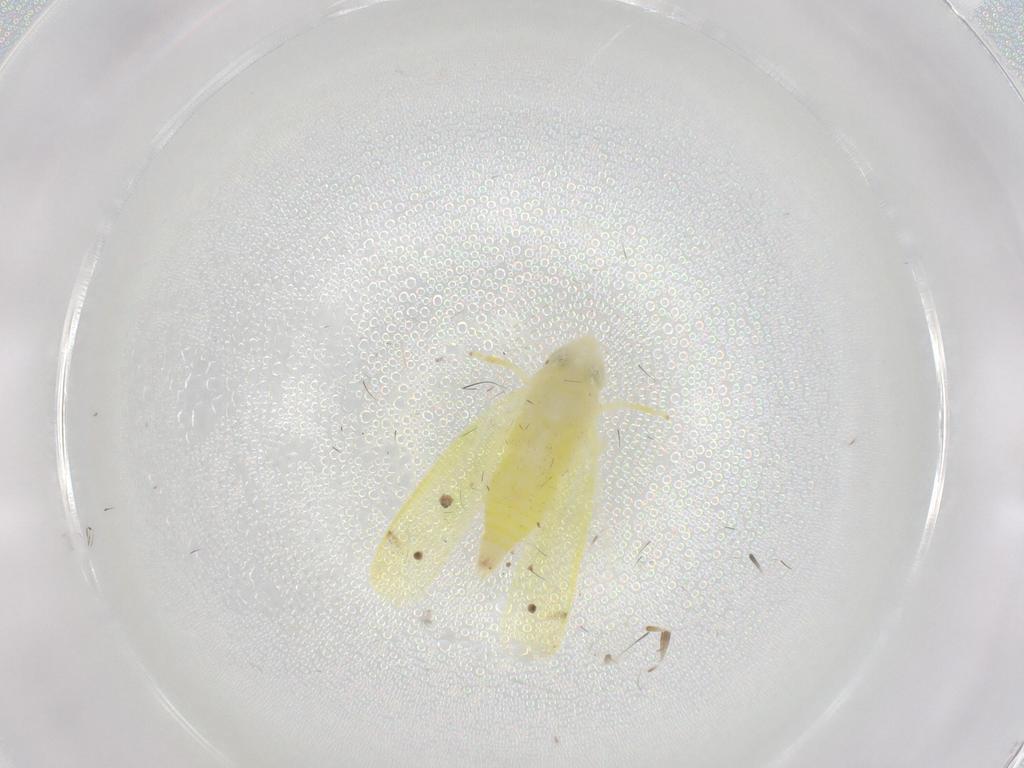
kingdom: Animalia
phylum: Arthropoda
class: Insecta
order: Hemiptera
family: Cicadellidae
